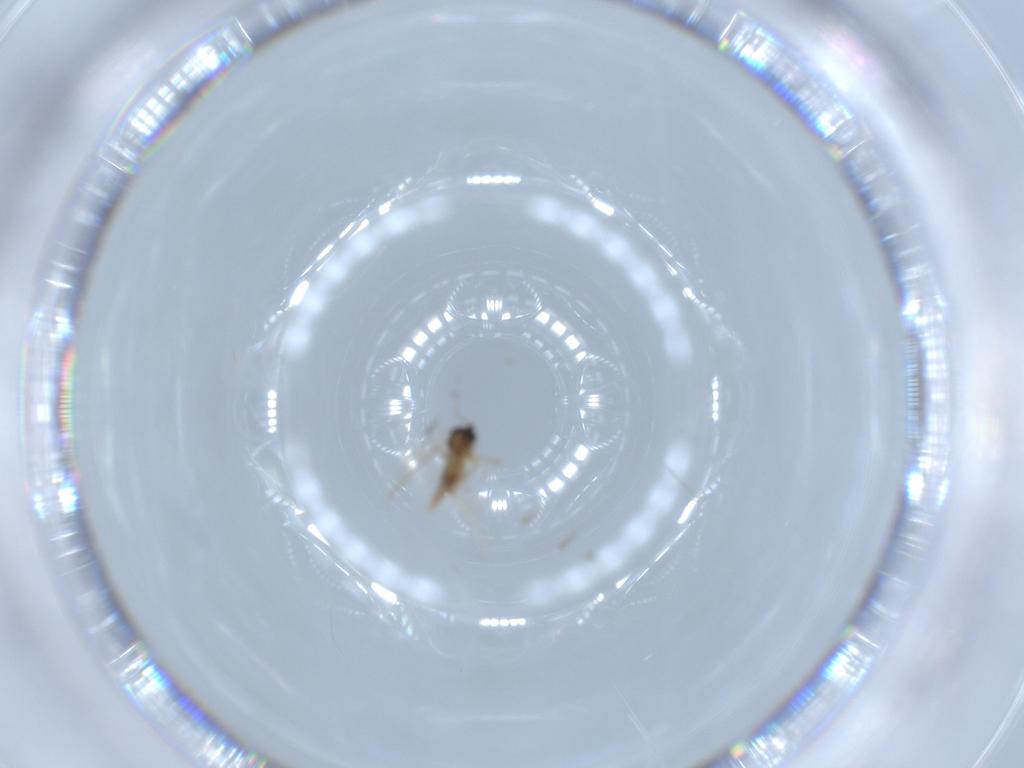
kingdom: Animalia
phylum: Arthropoda
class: Insecta
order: Diptera
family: Cecidomyiidae
